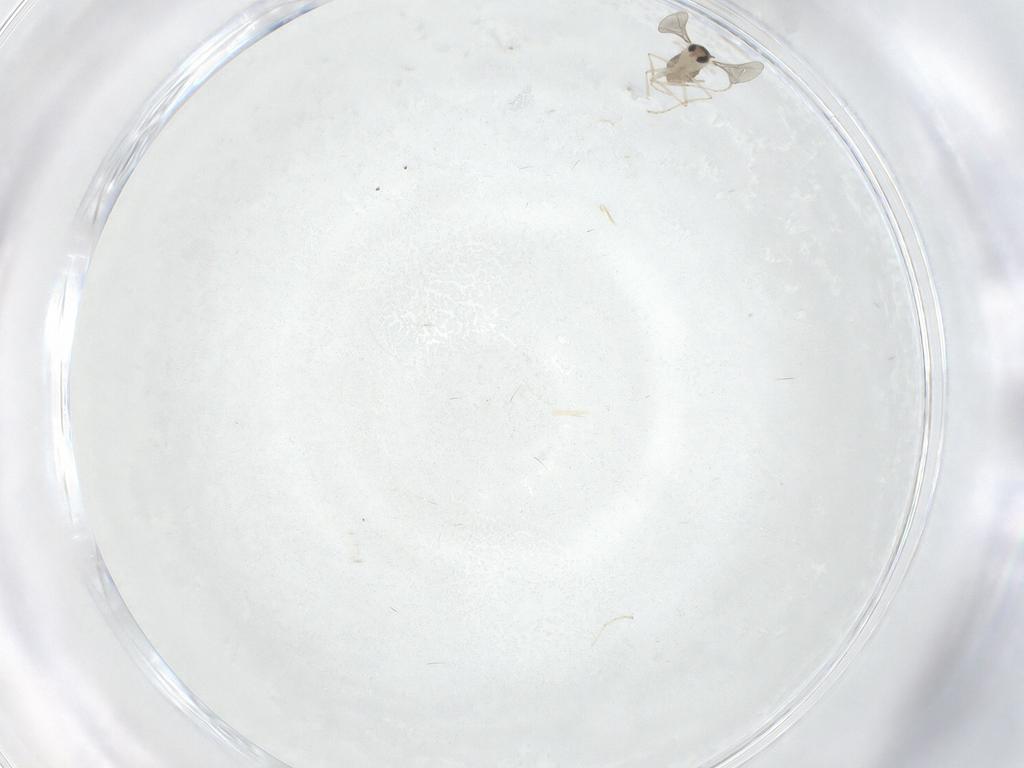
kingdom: Animalia
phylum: Arthropoda
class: Insecta
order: Diptera
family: Cecidomyiidae
